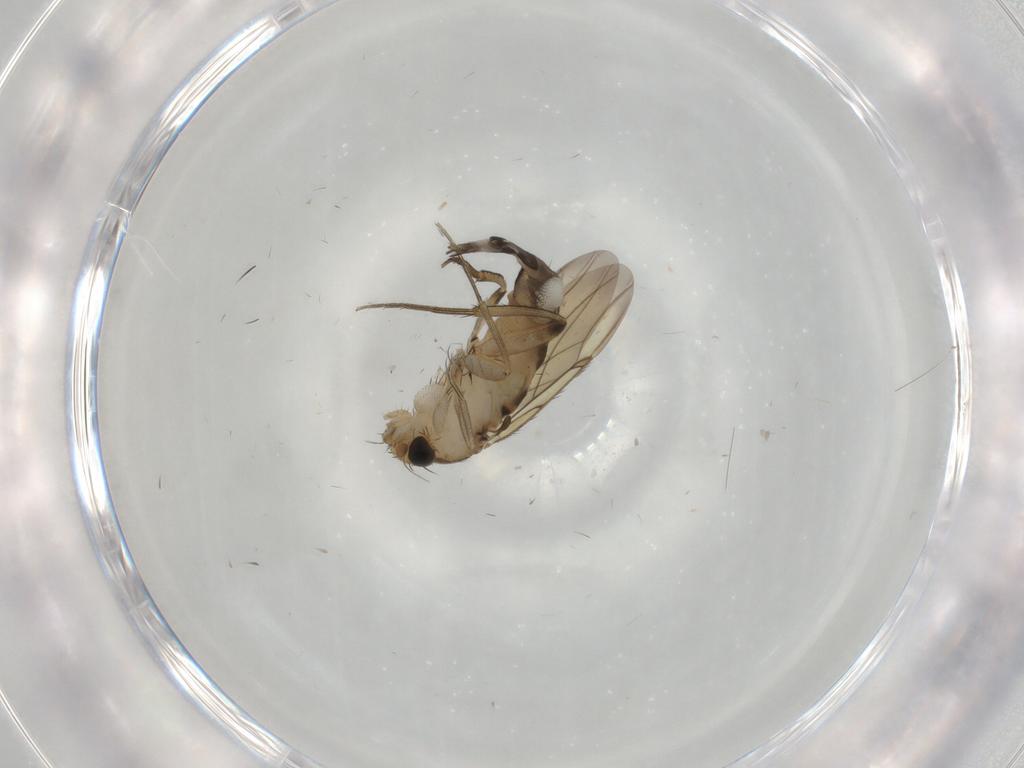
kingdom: Animalia
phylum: Arthropoda
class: Insecta
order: Diptera
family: Phoridae
